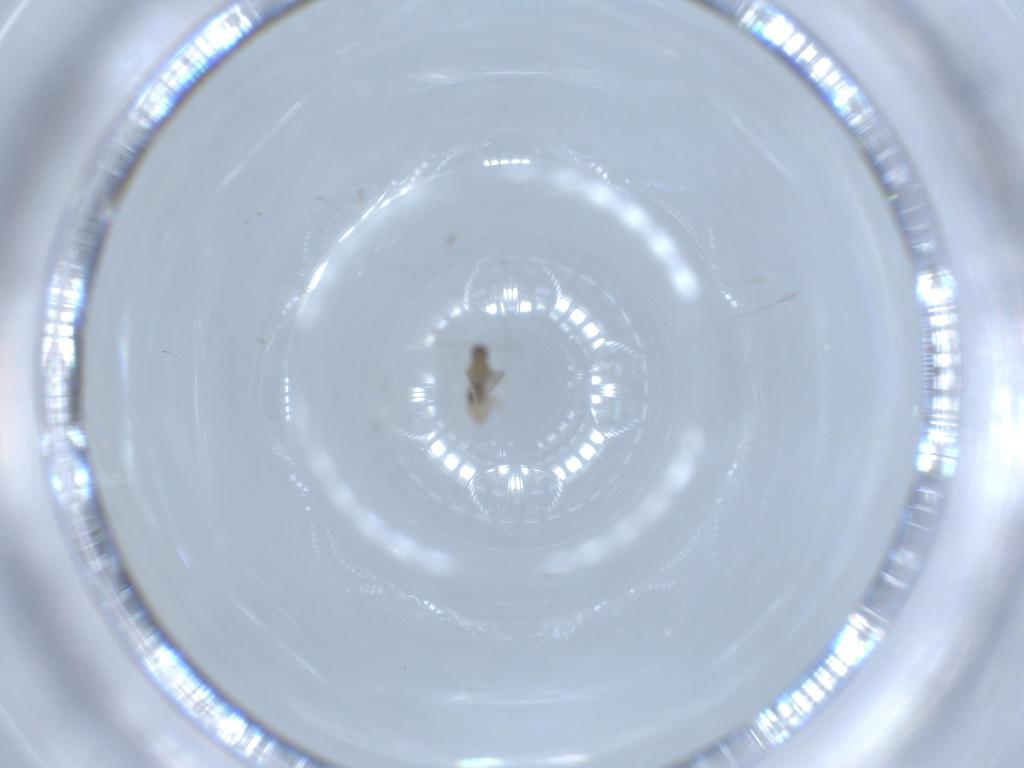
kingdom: Animalia
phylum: Arthropoda
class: Insecta
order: Diptera
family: Cecidomyiidae
